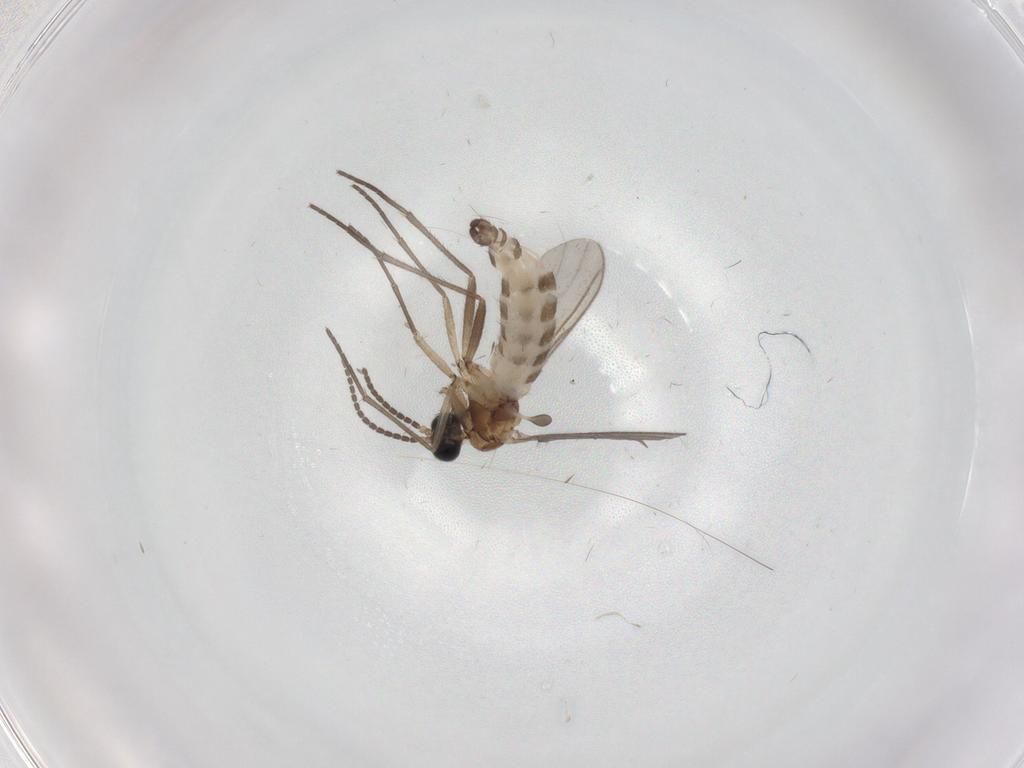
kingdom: Animalia
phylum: Arthropoda
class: Insecta
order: Diptera
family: Sciaridae
